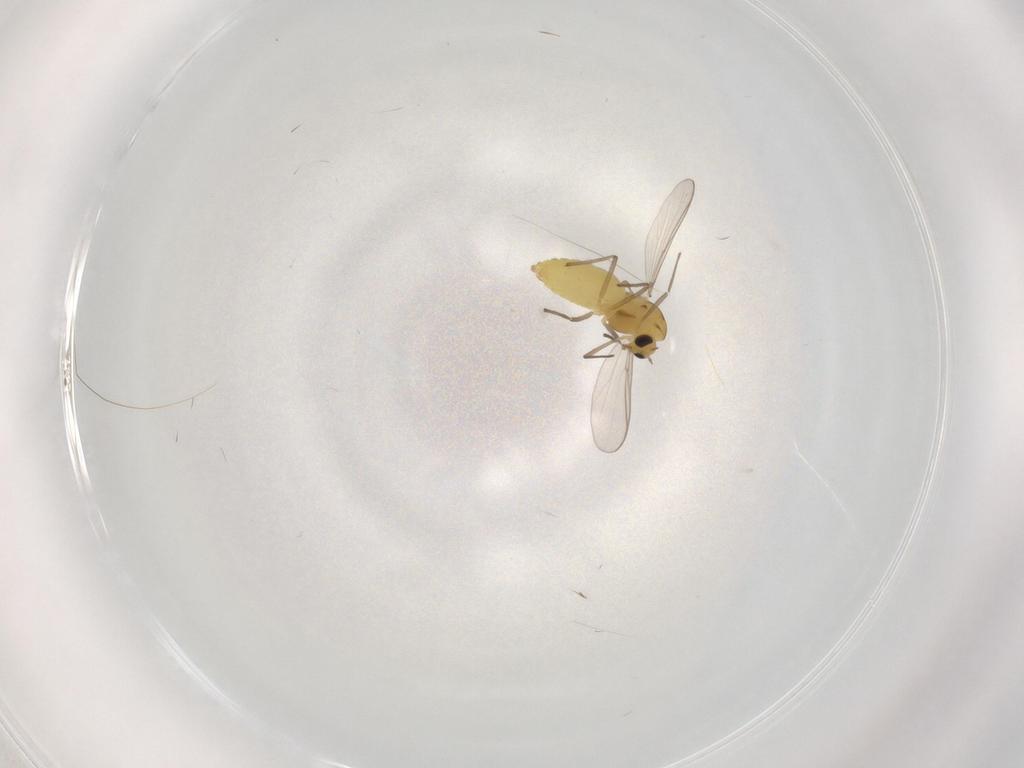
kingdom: Animalia
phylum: Arthropoda
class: Insecta
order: Diptera
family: Chironomidae
